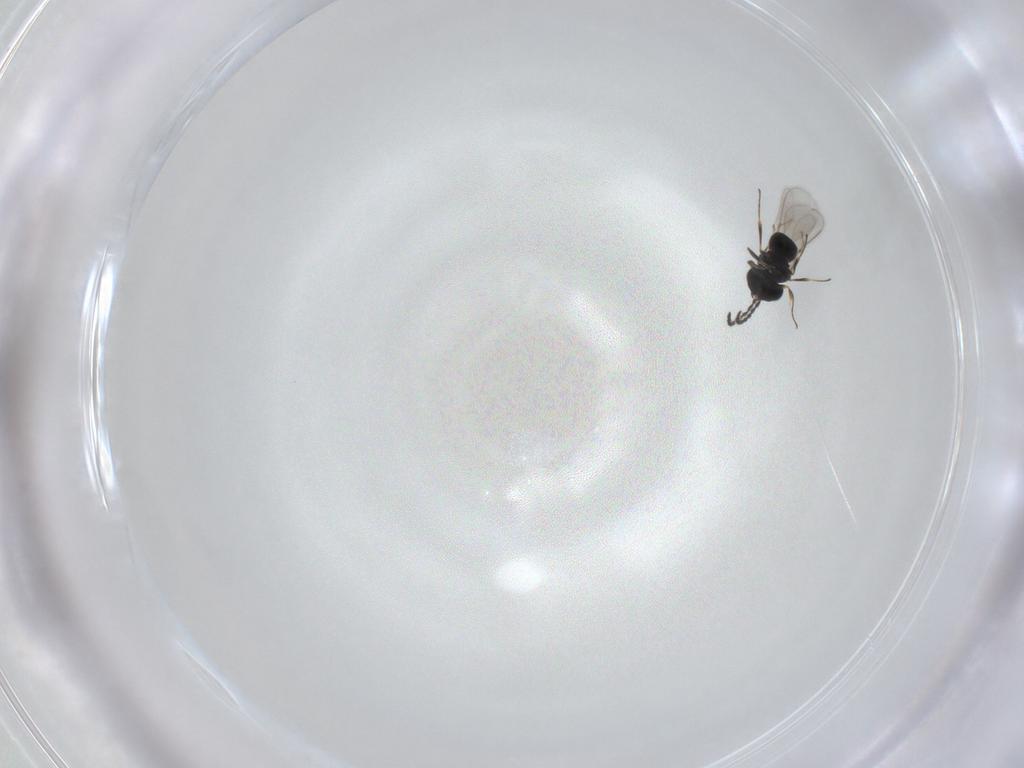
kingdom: Animalia
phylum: Arthropoda
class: Insecta
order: Hymenoptera
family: Scelionidae
